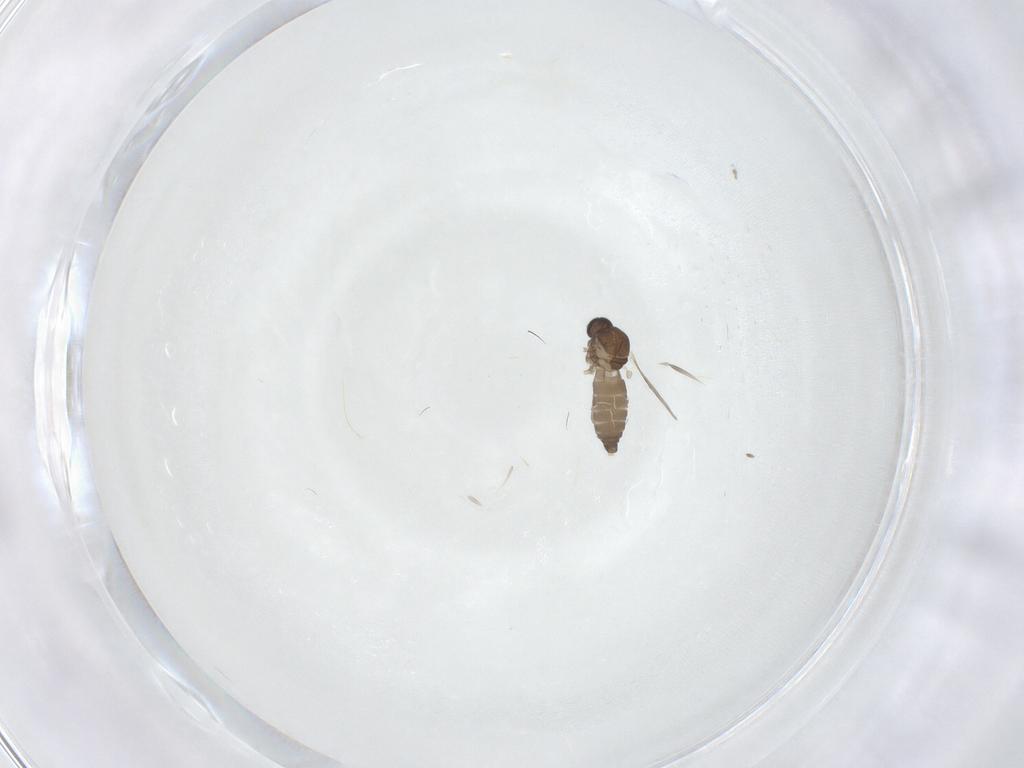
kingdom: Animalia
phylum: Arthropoda
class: Insecta
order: Diptera
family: Ceratopogonidae
